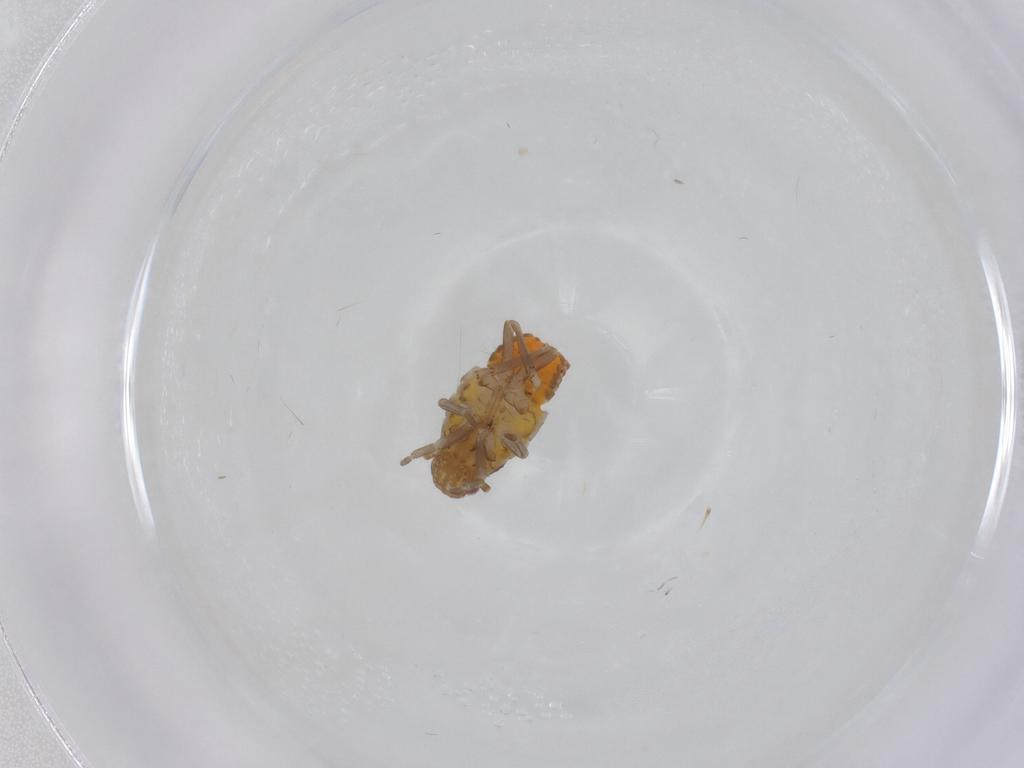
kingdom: Animalia
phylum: Arthropoda
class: Insecta
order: Hemiptera
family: Flatidae
